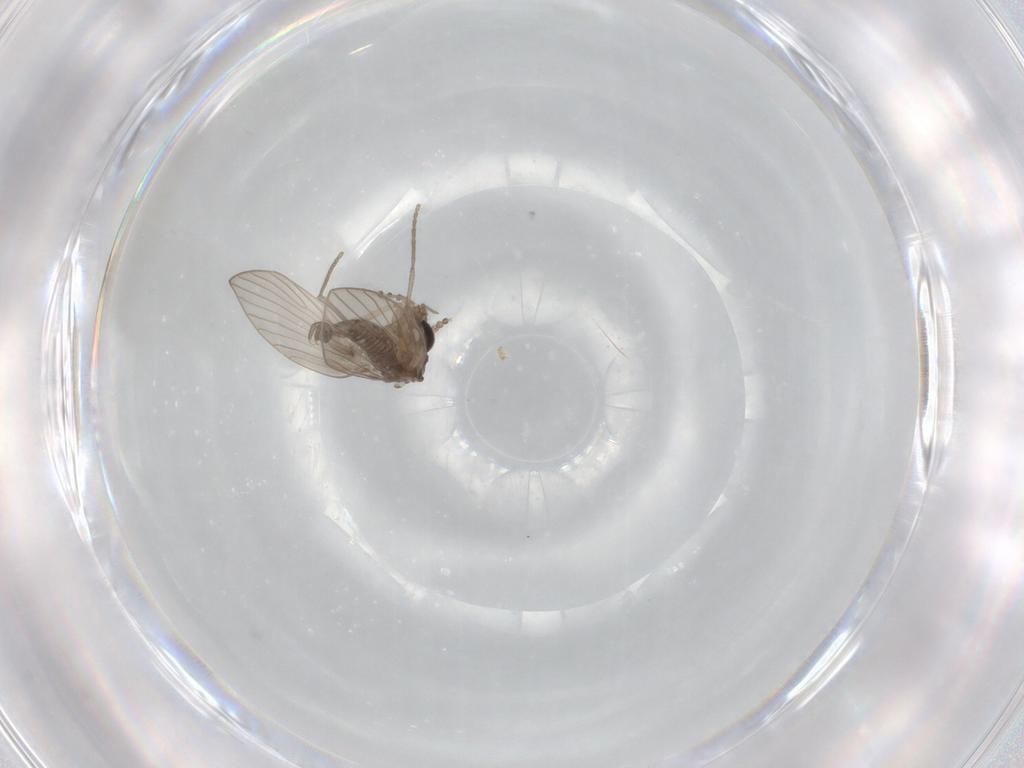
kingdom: Animalia
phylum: Arthropoda
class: Insecta
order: Diptera
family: Psychodidae
